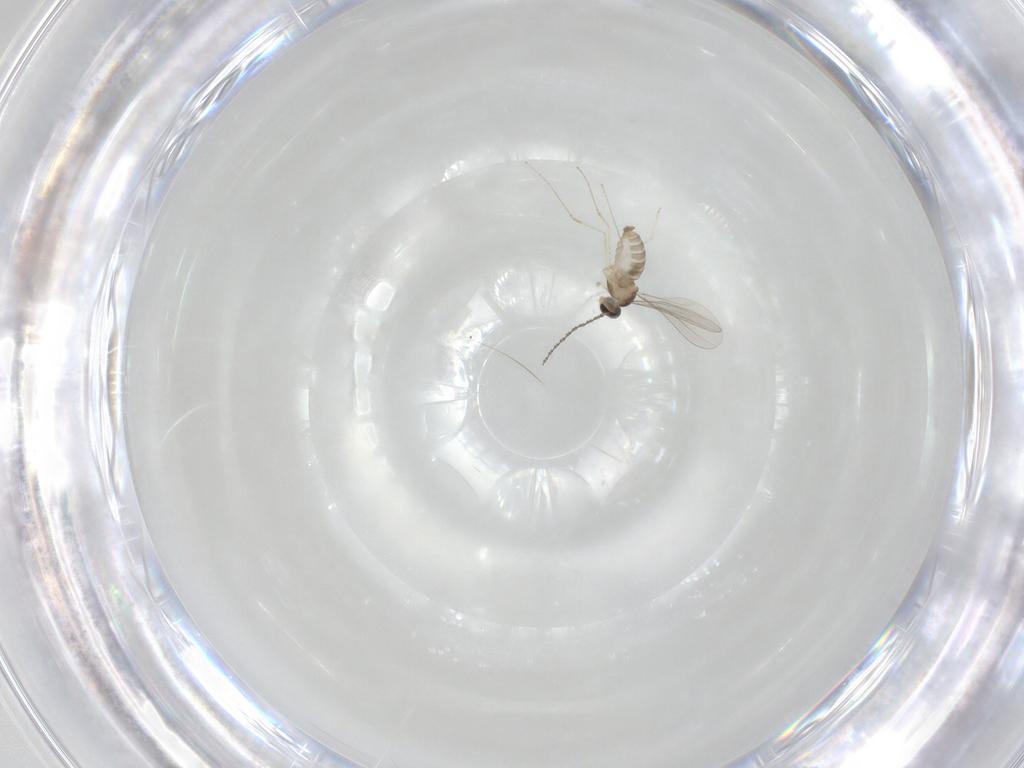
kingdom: Animalia
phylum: Arthropoda
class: Insecta
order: Diptera
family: Cecidomyiidae
